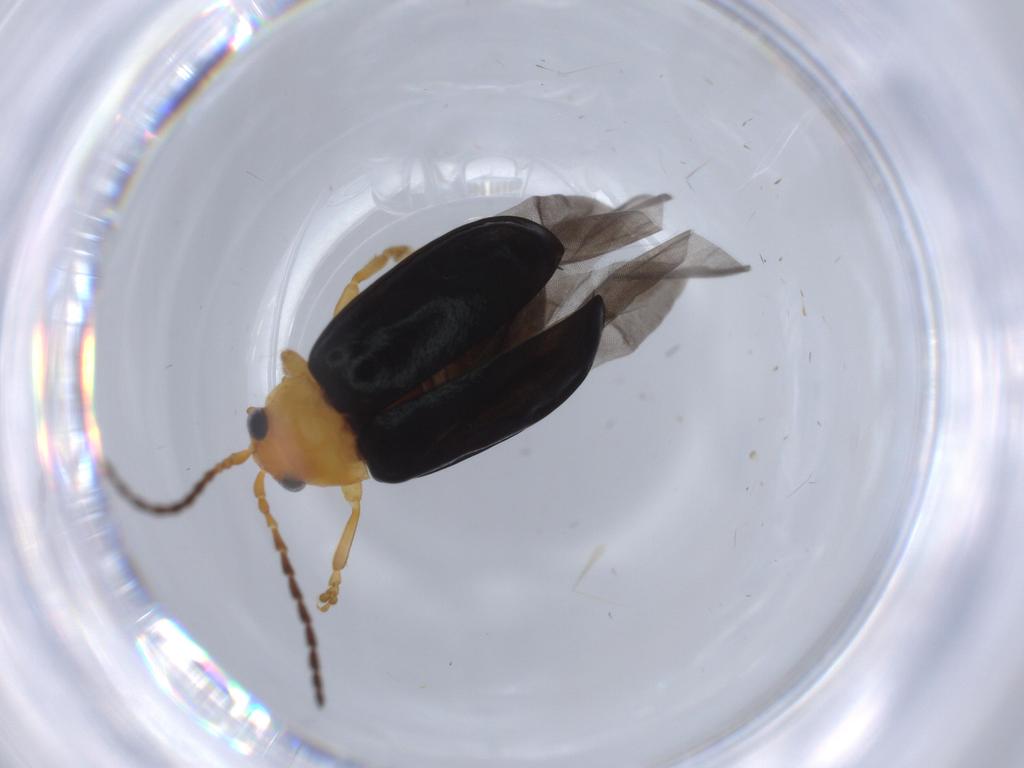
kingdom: Animalia
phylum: Arthropoda
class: Insecta
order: Coleoptera
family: Chrysomelidae
